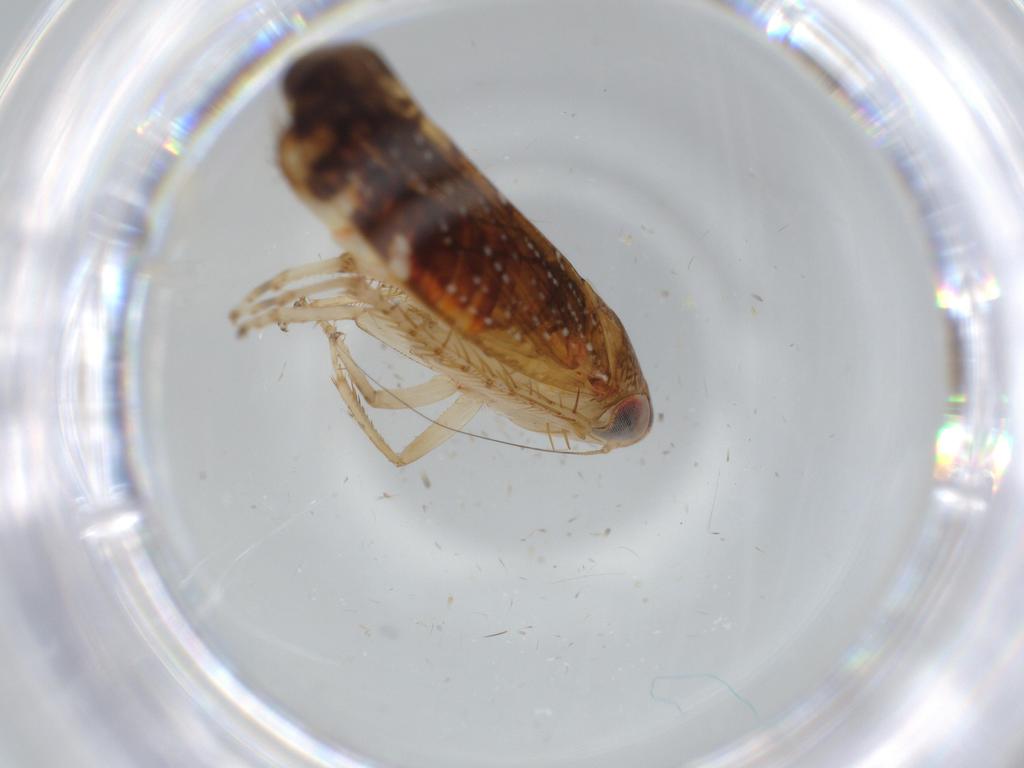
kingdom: Animalia
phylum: Arthropoda
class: Insecta
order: Hemiptera
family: Cicadellidae
